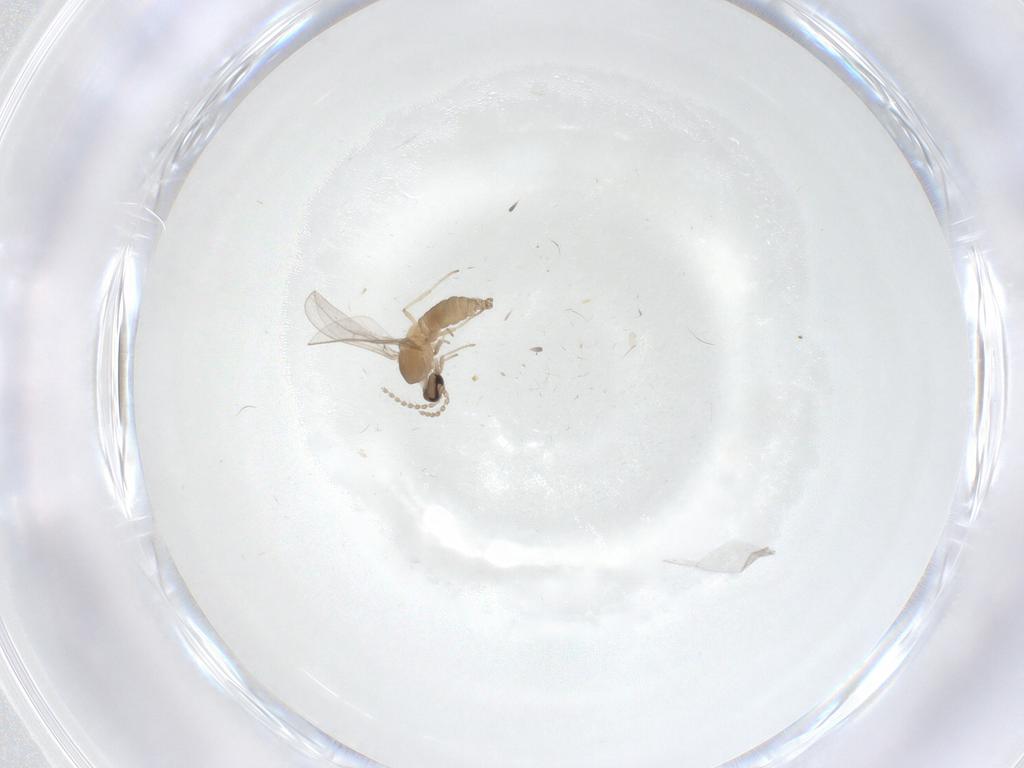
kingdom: Animalia
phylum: Arthropoda
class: Insecta
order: Diptera
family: Cecidomyiidae
